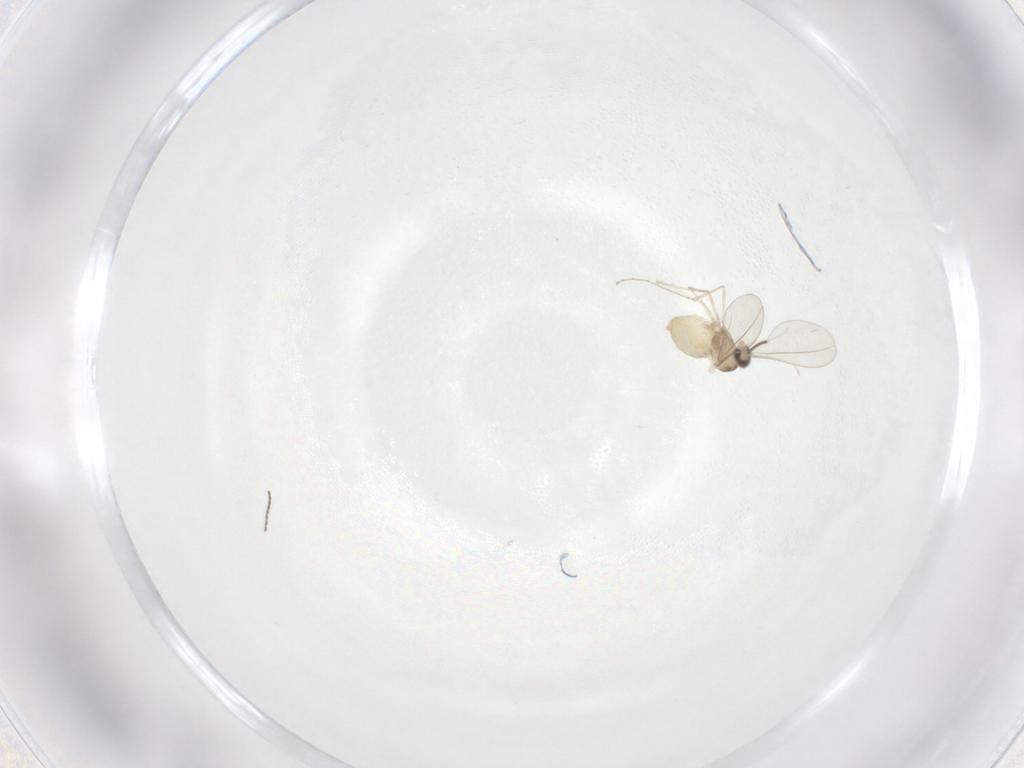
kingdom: Animalia
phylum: Arthropoda
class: Insecta
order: Diptera
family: Cecidomyiidae
